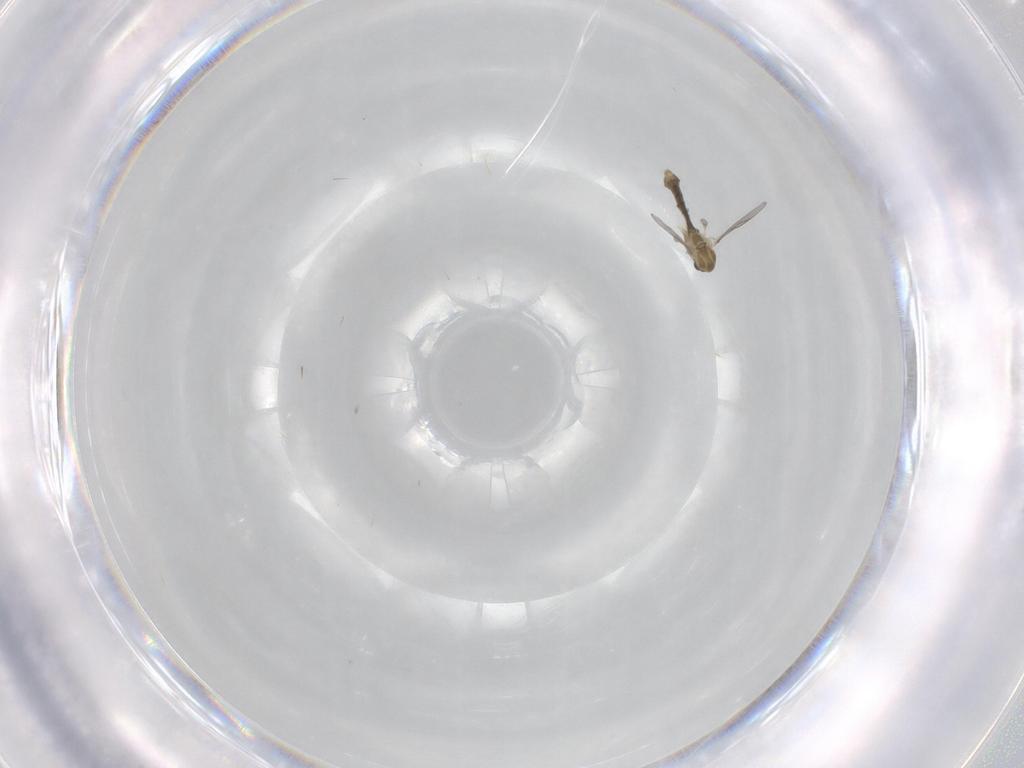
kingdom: Animalia
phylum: Arthropoda
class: Insecta
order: Diptera
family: Chironomidae
